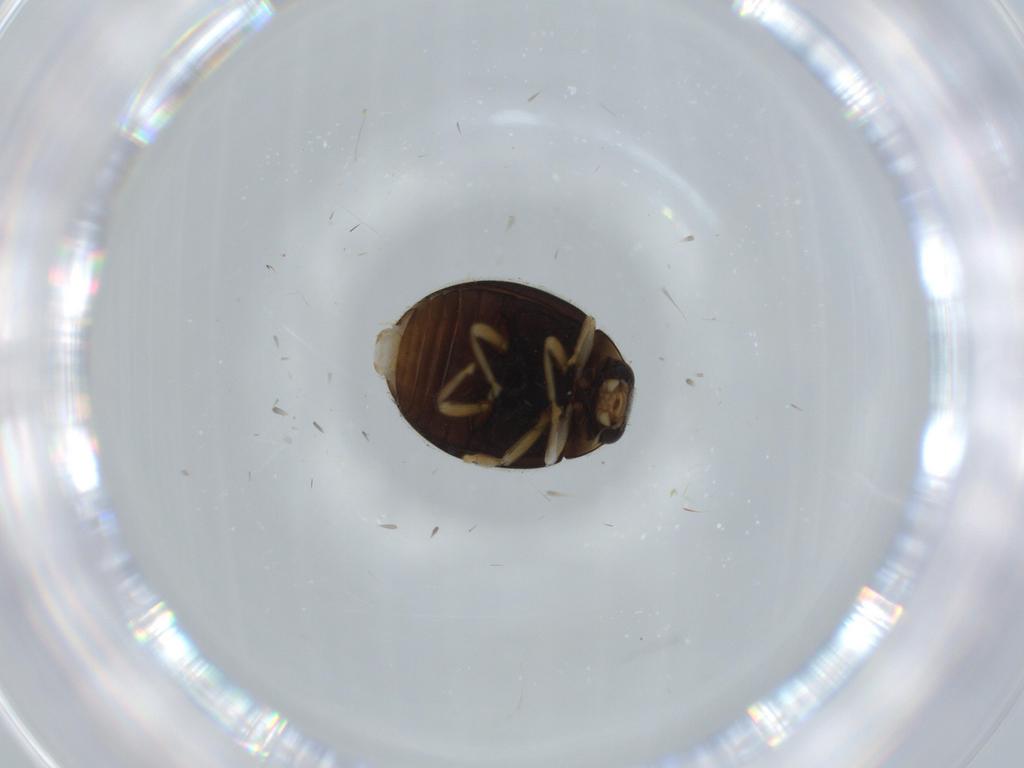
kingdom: Animalia
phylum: Arthropoda
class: Insecta
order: Coleoptera
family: Coccinellidae
